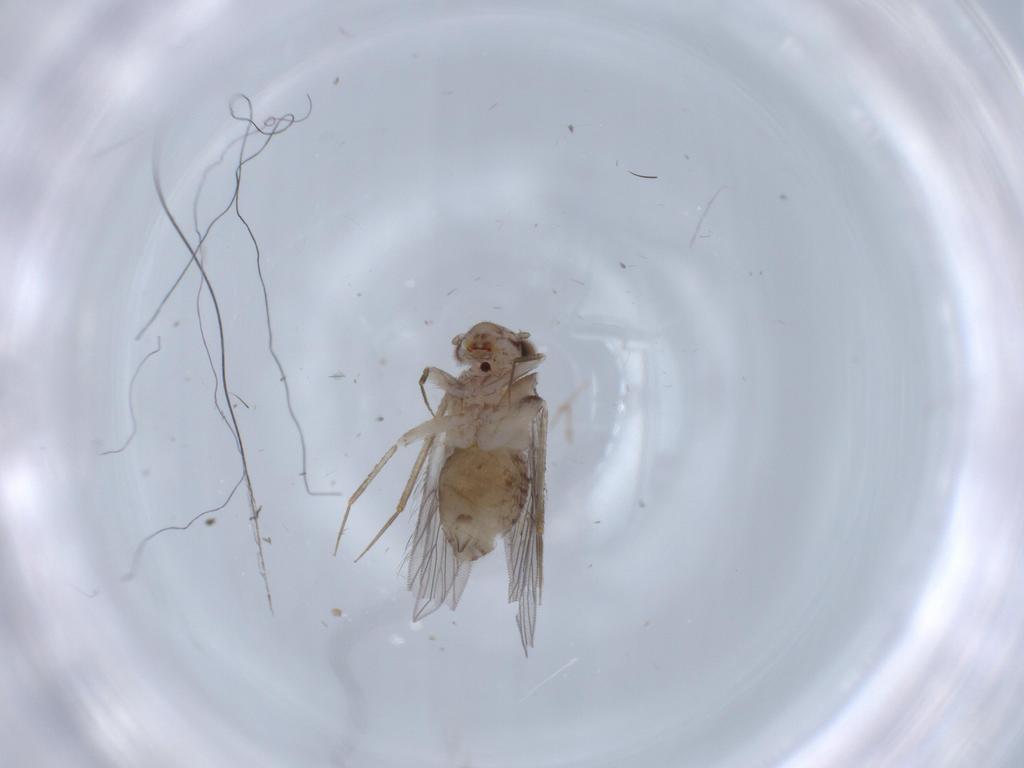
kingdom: Animalia
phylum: Arthropoda
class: Insecta
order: Psocodea
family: Lepidopsocidae
